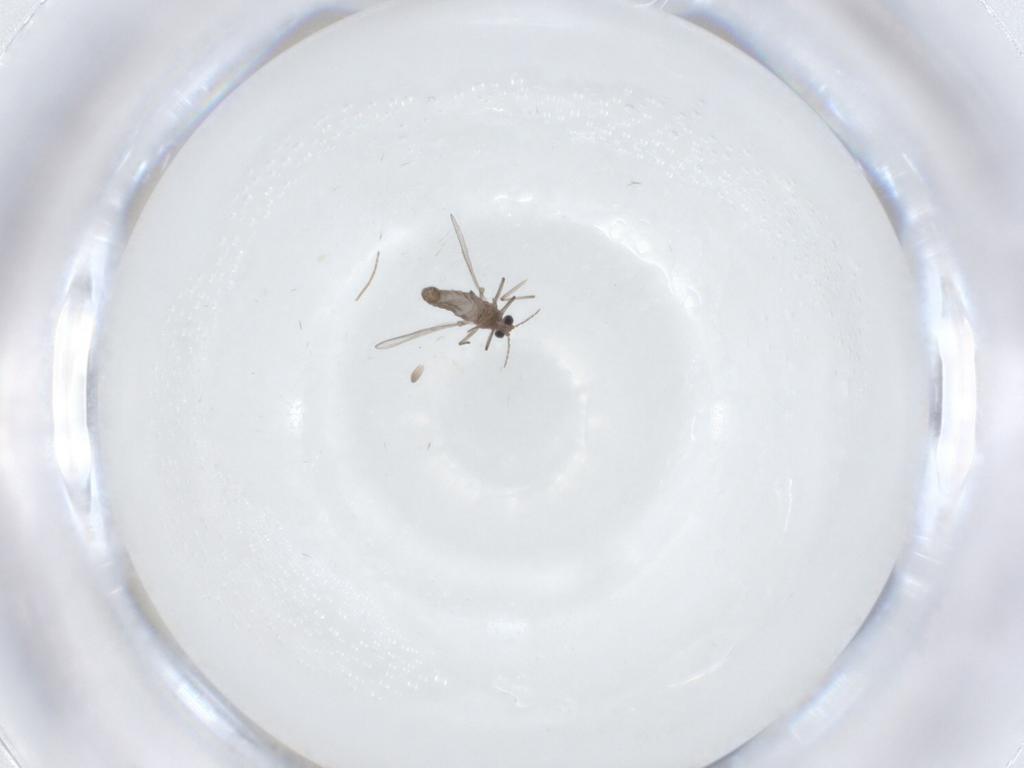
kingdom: Animalia
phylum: Arthropoda
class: Insecta
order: Diptera
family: Chironomidae
